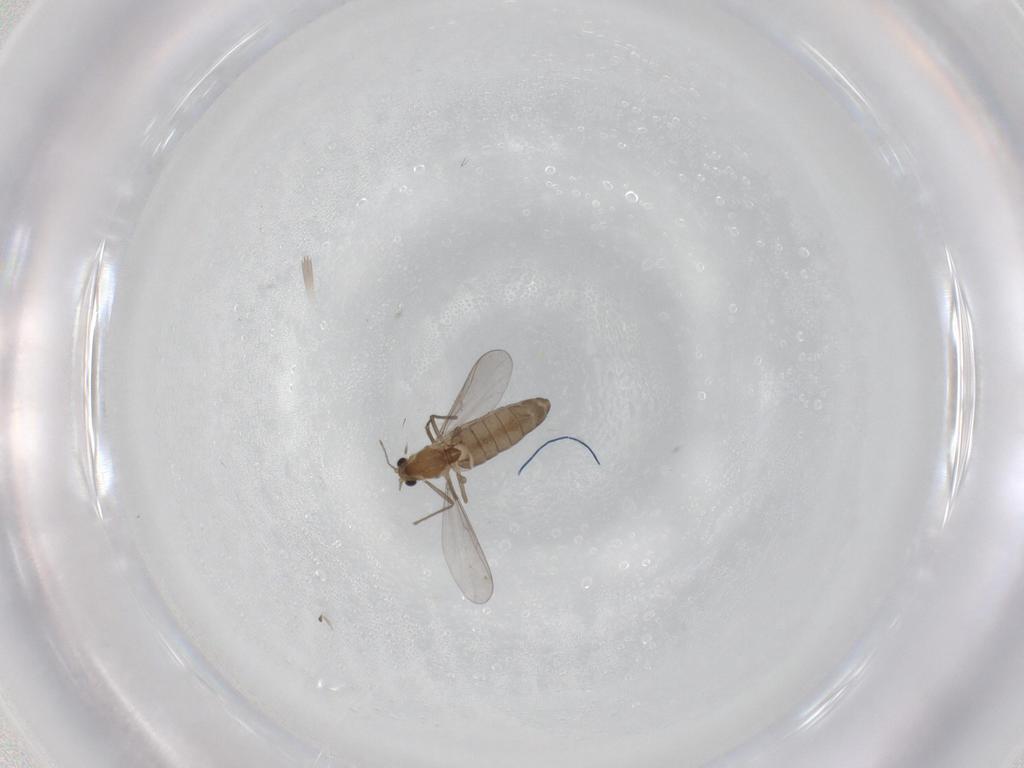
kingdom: Animalia
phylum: Arthropoda
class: Insecta
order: Diptera
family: Chironomidae
